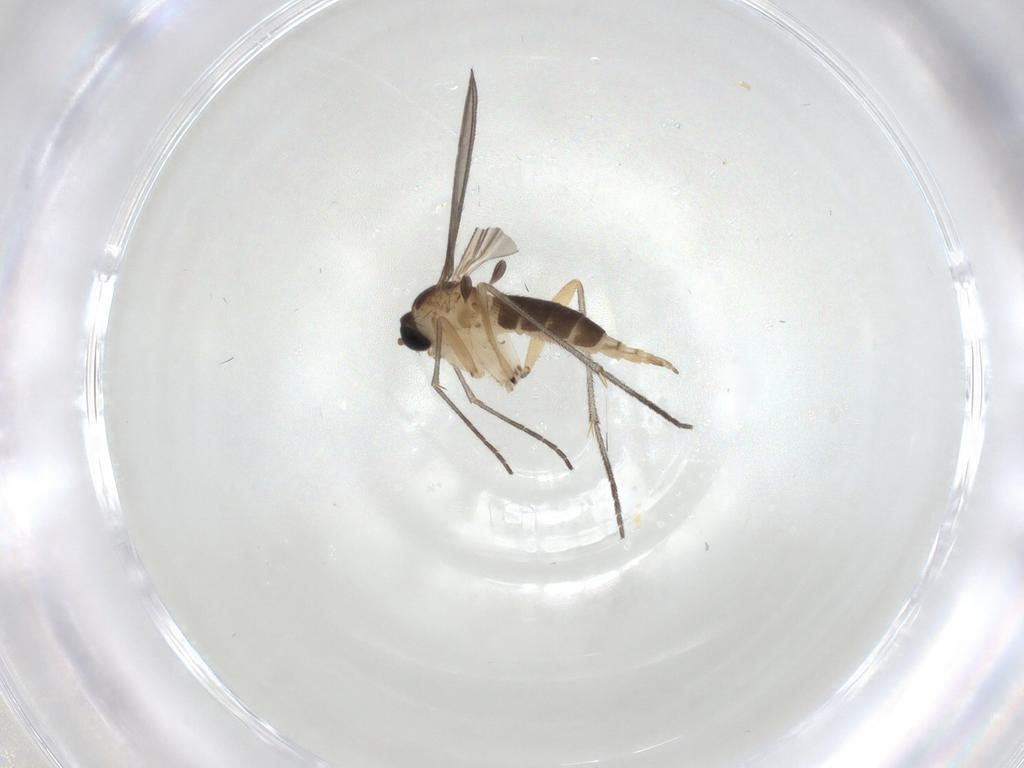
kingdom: Animalia
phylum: Arthropoda
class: Insecta
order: Diptera
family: Sciaridae
